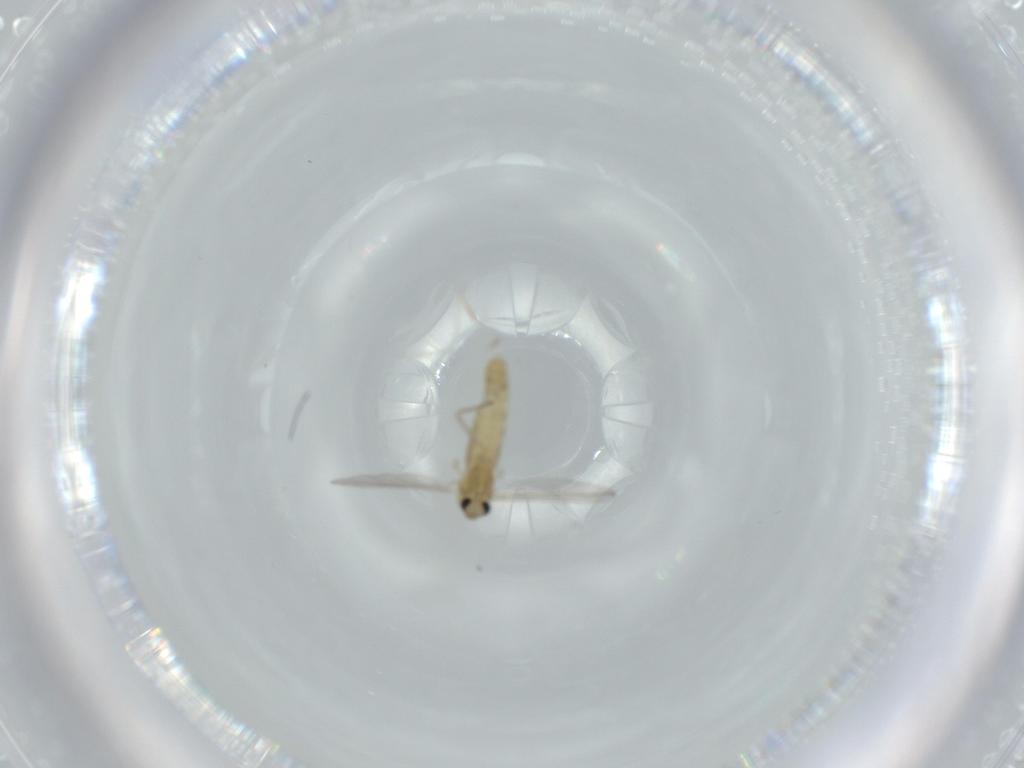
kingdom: Animalia
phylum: Arthropoda
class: Insecta
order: Diptera
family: Chironomidae
